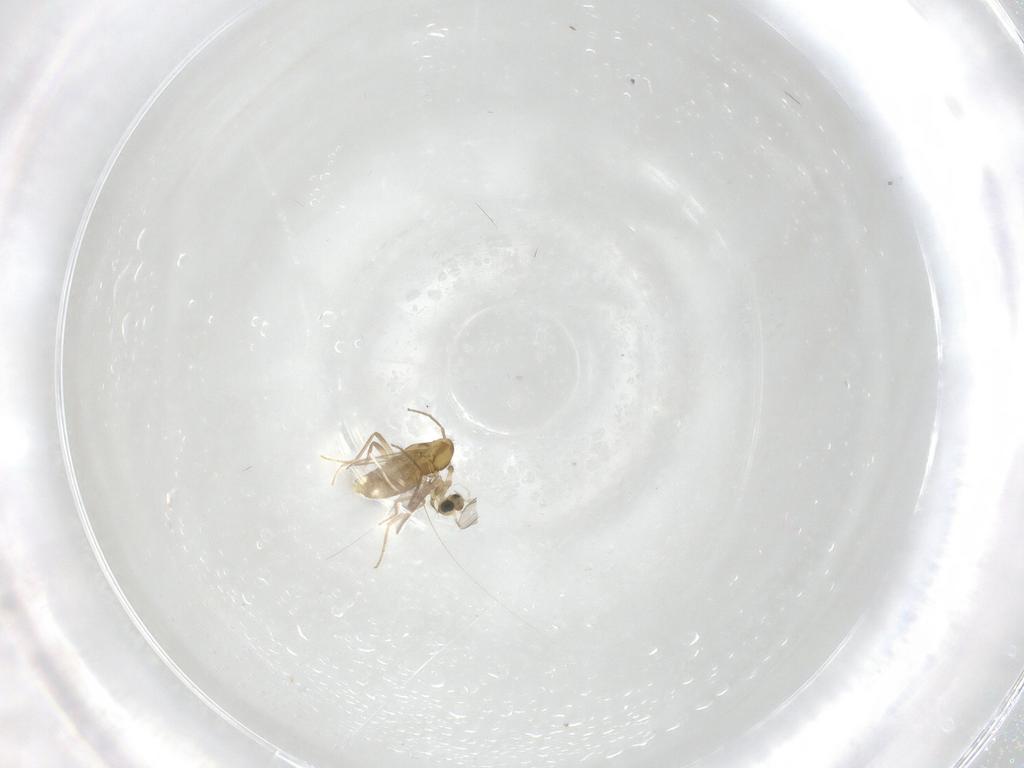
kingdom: Animalia
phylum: Arthropoda
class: Insecta
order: Diptera
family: Chironomidae
